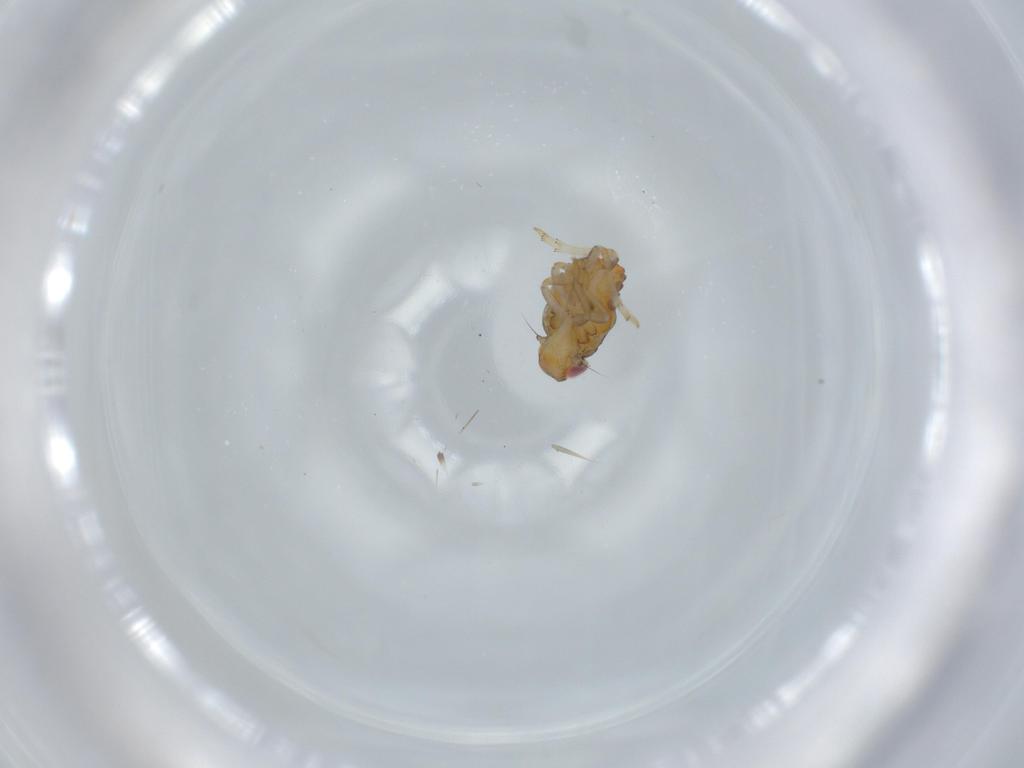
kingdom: Animalia
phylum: Arthropoda
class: Insecta
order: Hemiptera
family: Issidae
